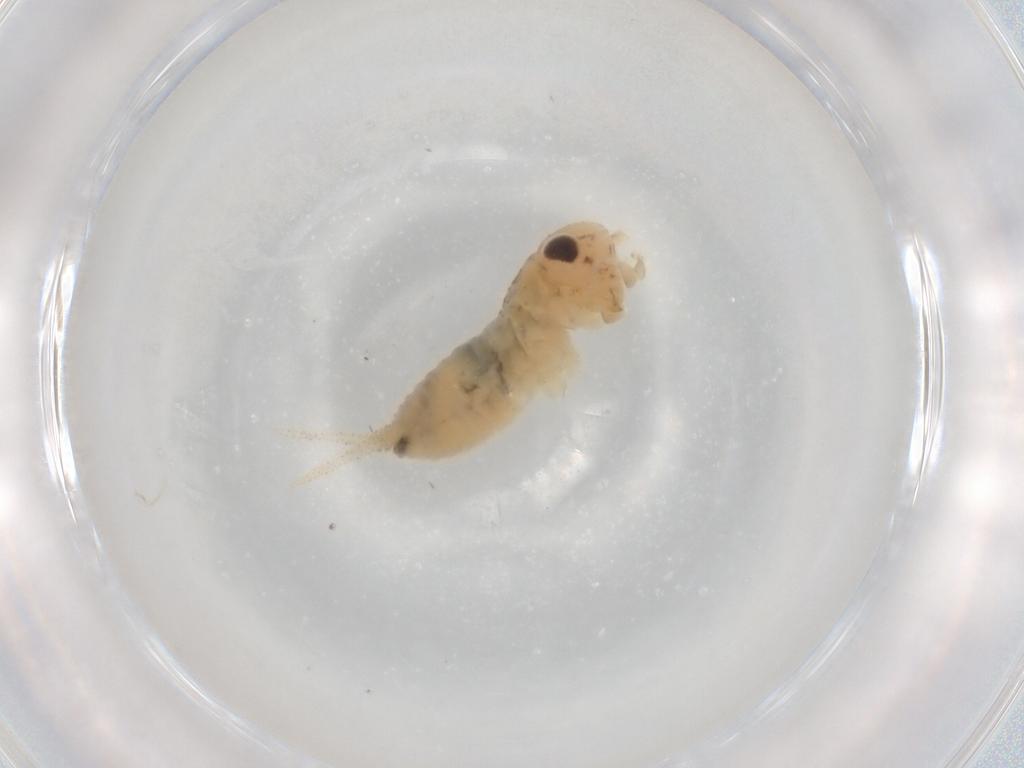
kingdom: Animalia
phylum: Arthropoda
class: Insecta
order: Orthoptera
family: Trigonidiidae
